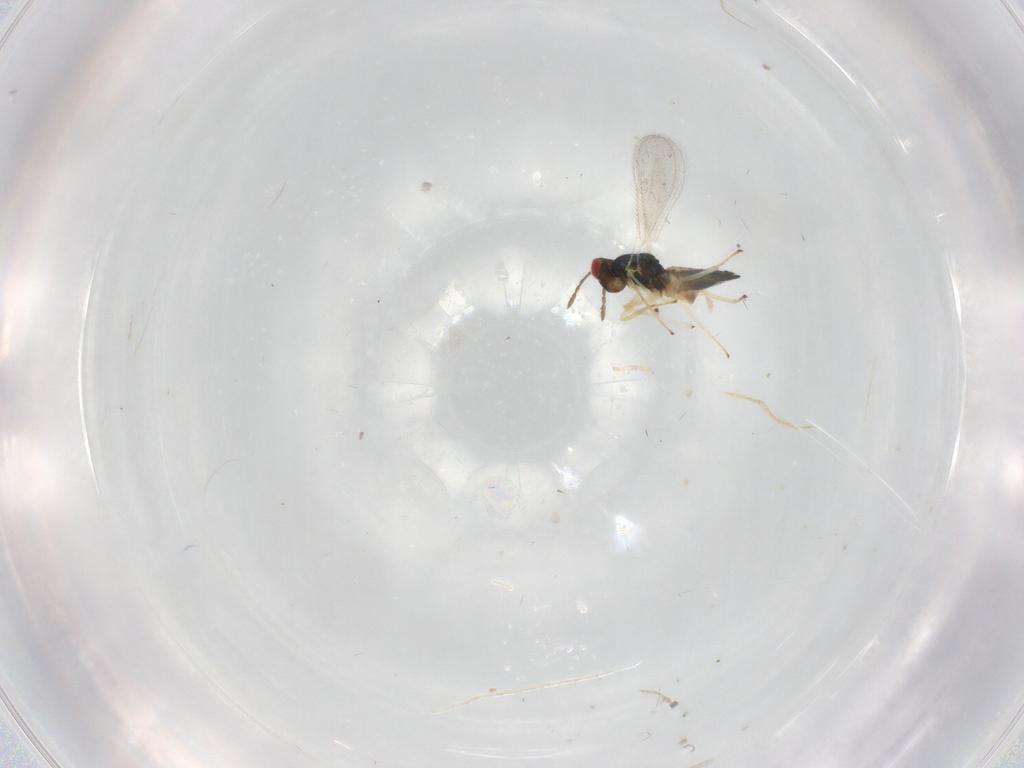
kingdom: Animalia
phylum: Arthropoda
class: Insecta
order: Hymenoptera
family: Eulophidae
